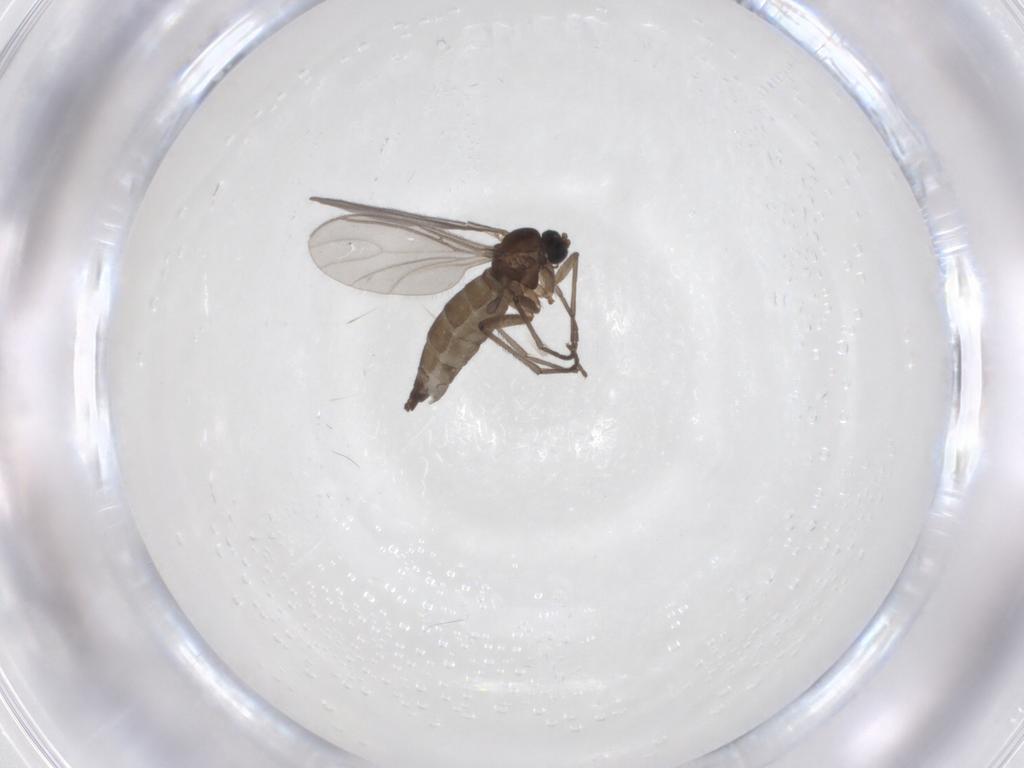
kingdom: Animalia
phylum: Arthropoda
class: Insecta
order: Diptera
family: Sciaridae
